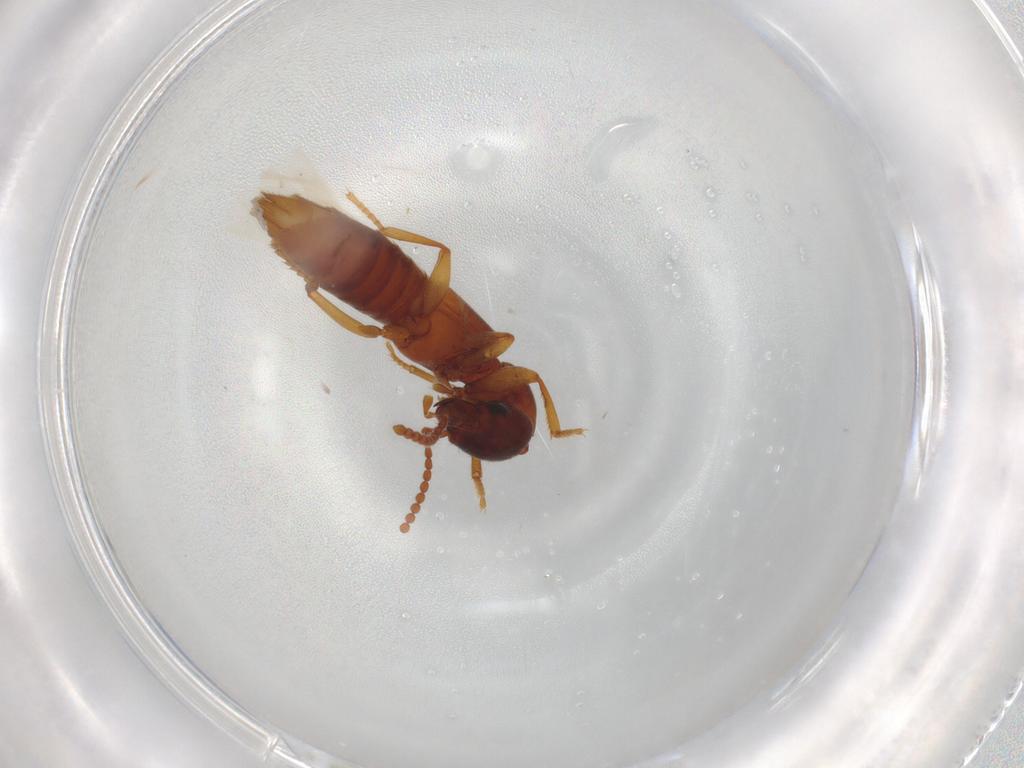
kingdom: Animalia
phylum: Arthropoda
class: Insecta
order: Coleoptera
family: Staphylinidae
